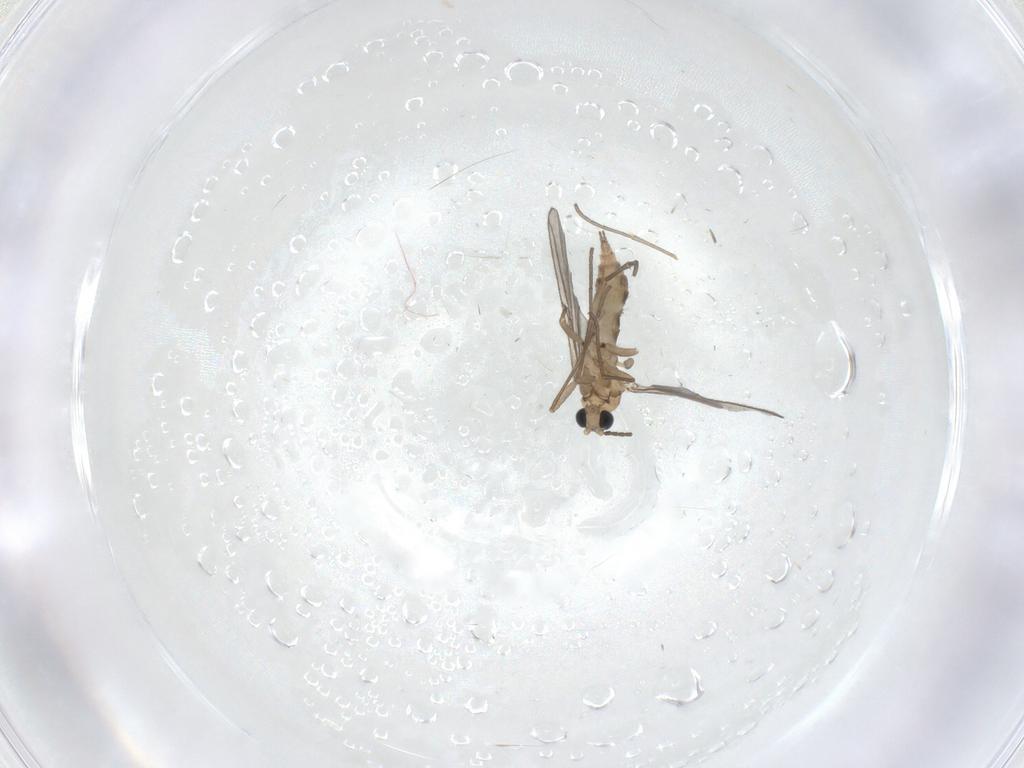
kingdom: Animalia
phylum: Arthropoda
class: Insecta
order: Diptera
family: Sciaridae
